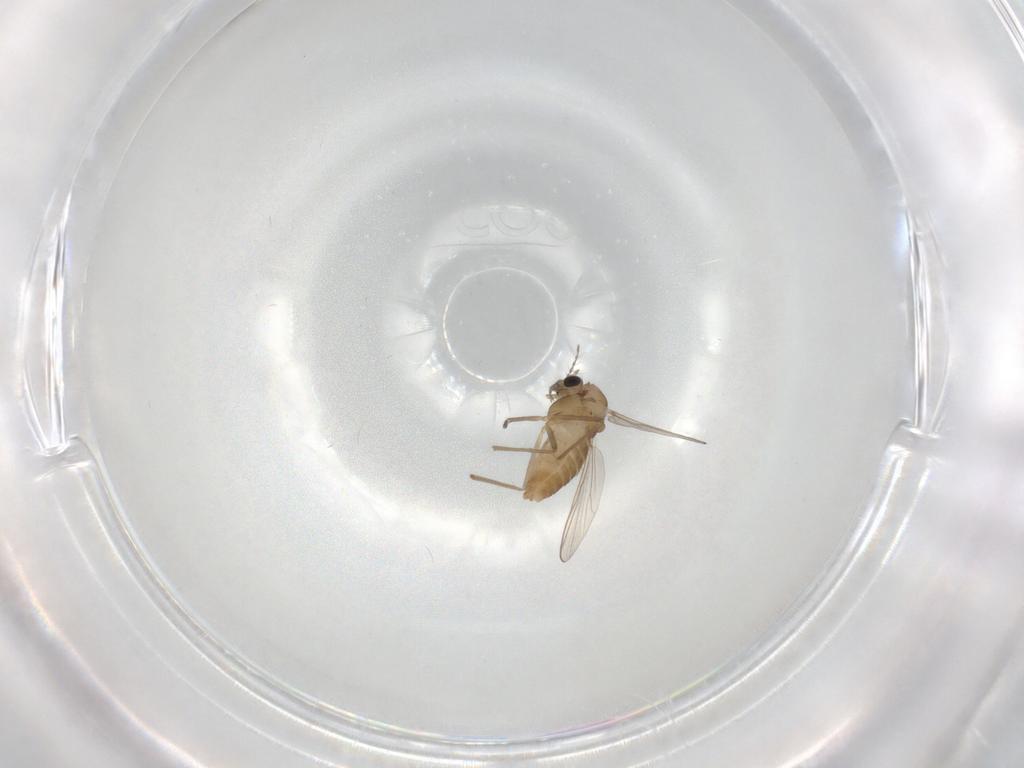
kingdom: Animalia
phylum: Arthropoda
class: Insecta
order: Diptera
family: Chironomidae
